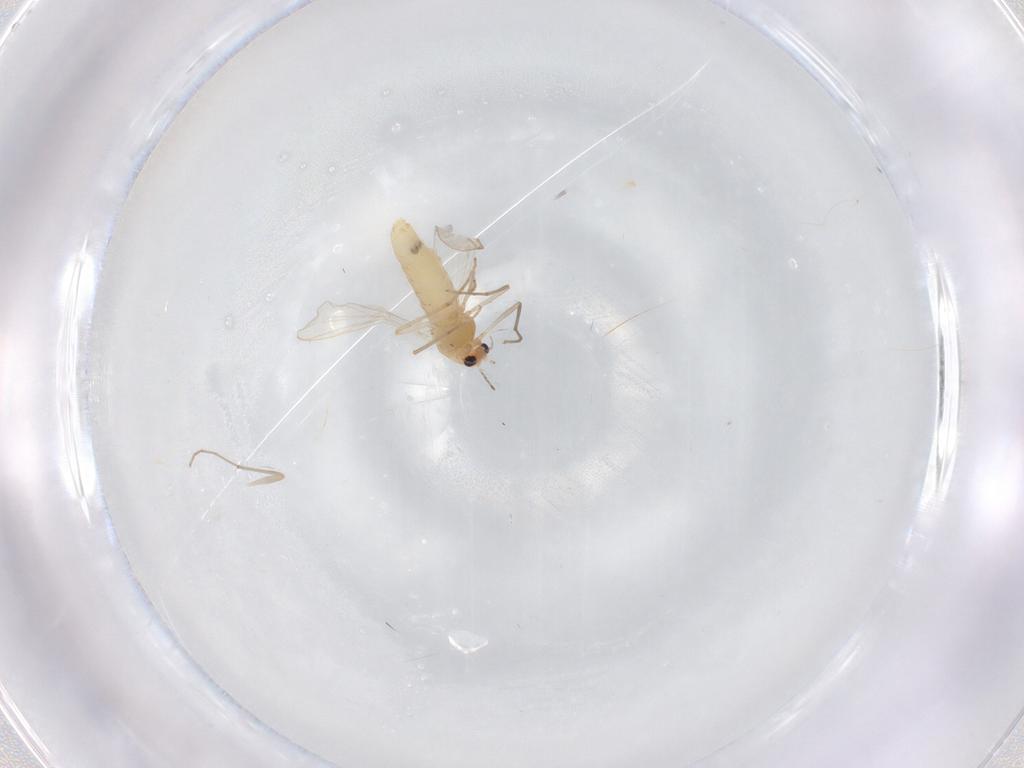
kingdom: Animalia
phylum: Arthropoda
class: Insecta
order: Diptera
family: Chironomidae
